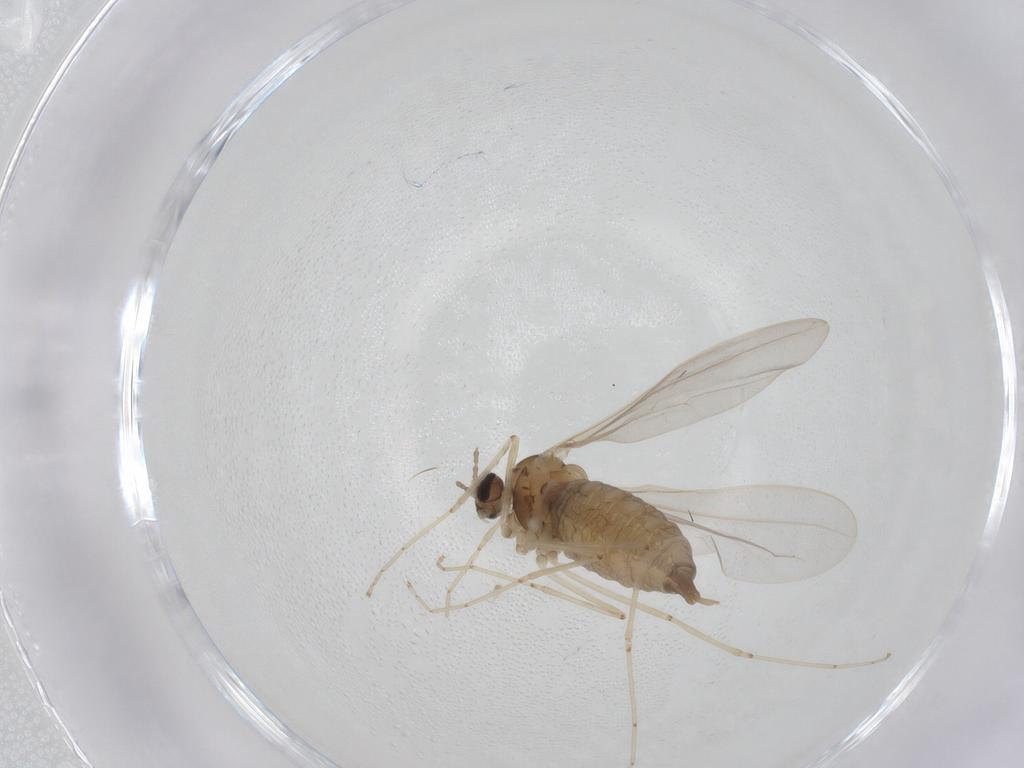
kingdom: Animalia
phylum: Arthropoda
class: Insecta
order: Diptera
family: Cecidomyiidae
